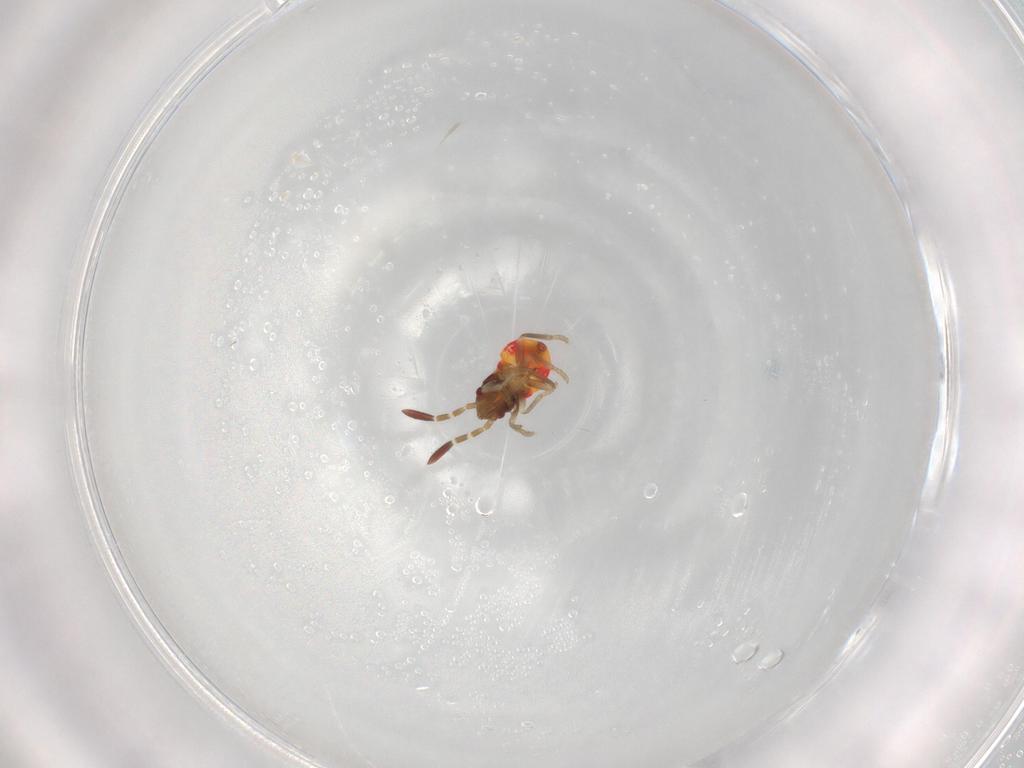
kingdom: Animalia
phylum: Arthropoda
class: Insecta
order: Hemiptera
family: Rhyparochromidae
